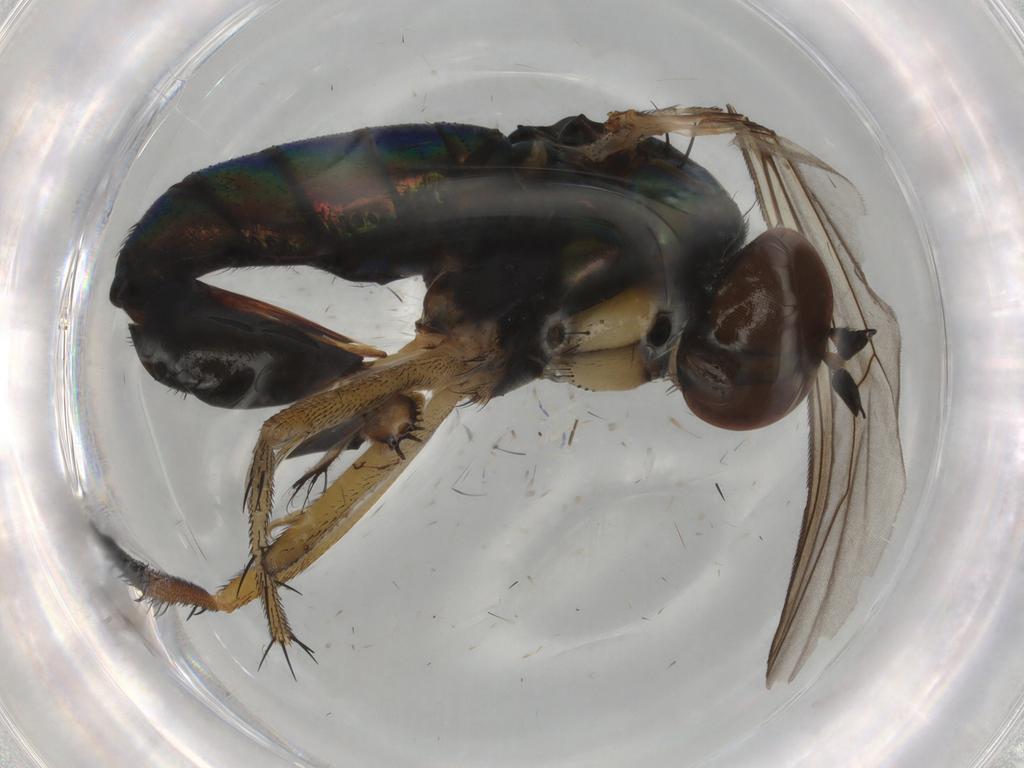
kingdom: Animalia
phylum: Arthropoda
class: Insecta
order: Diptera
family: Dolichopodidae
